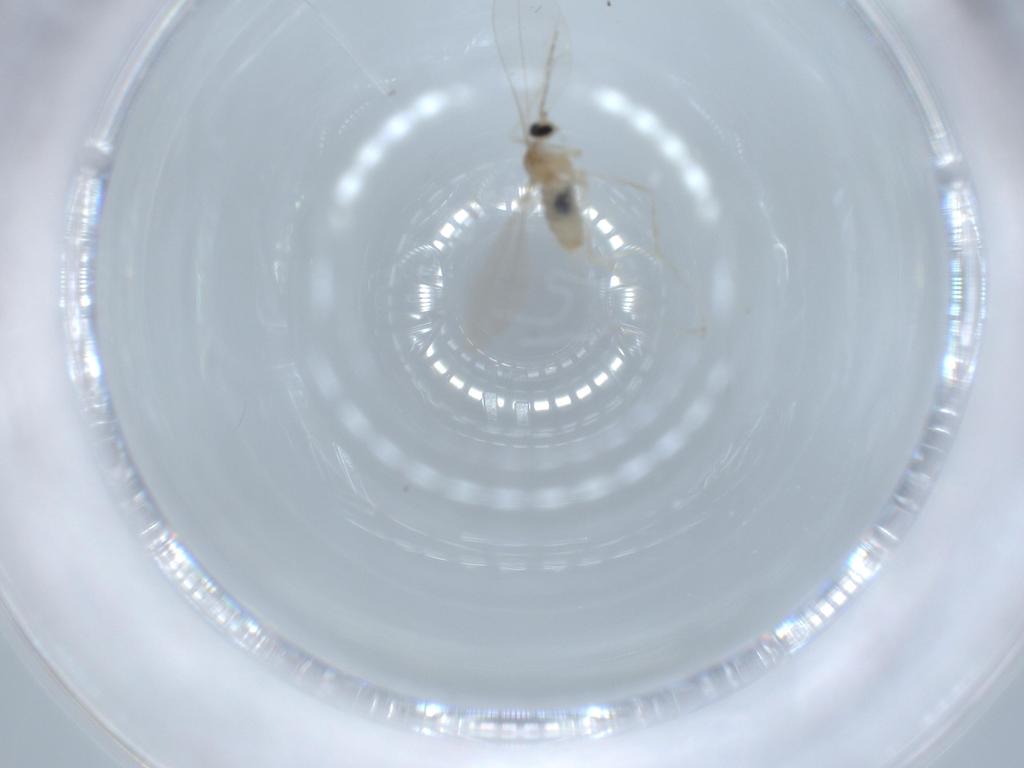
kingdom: Animalia
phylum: Arthropoda
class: Insecta
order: Diptera
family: Cecidomyiidae
